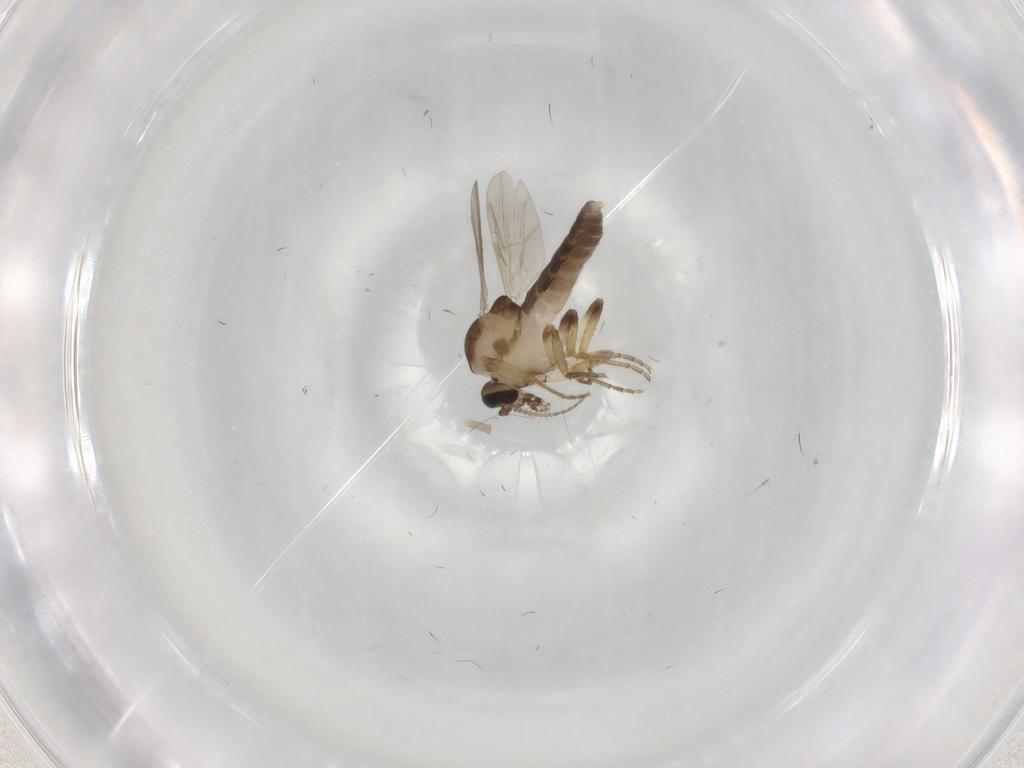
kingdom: Animalia
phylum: Arthropoda
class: Insecta
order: Diptera
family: Ceratopogonidae
